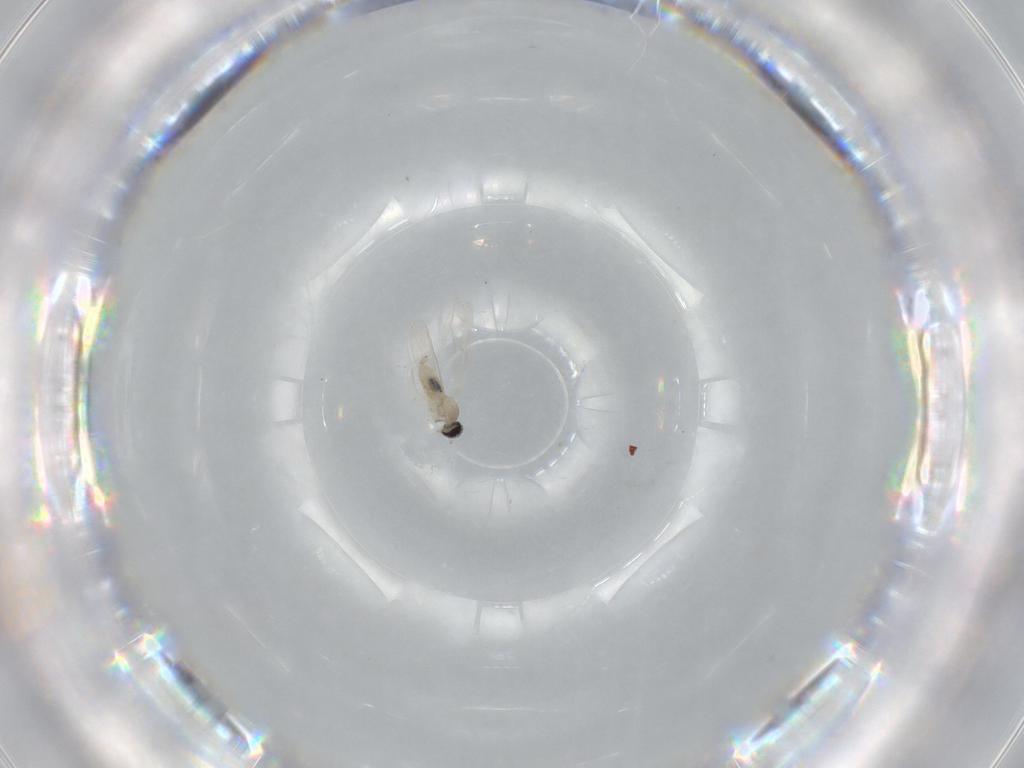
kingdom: Animalia
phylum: Arthropoda
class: Insecta
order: Diptera
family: Cecidomyiidae
